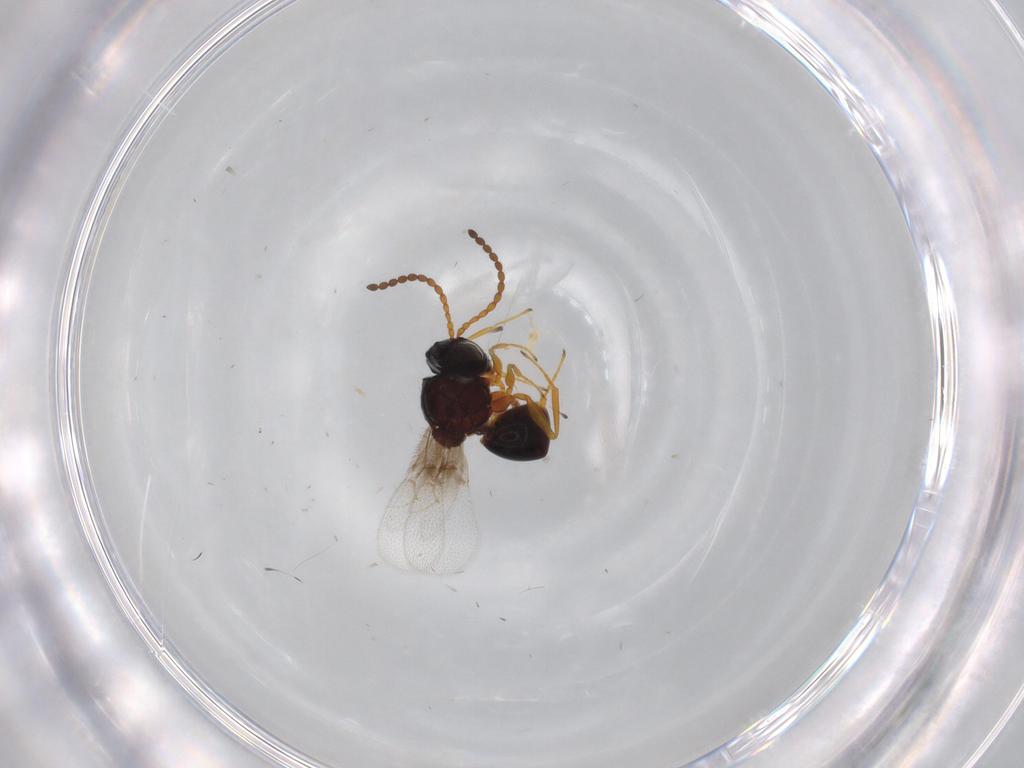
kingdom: Animalia
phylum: Arthropoda
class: Insecta
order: Hymenoptera
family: Figitidae
